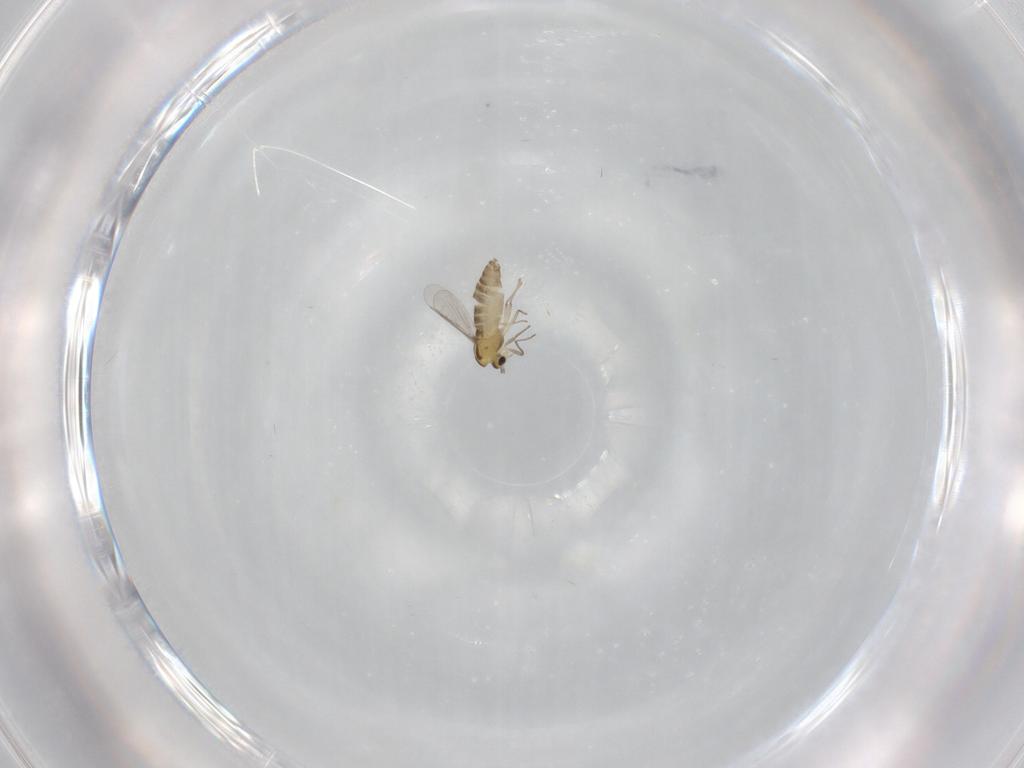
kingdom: Animalia
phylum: Arthropoda
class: Insecta
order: Diptera
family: Chironomidae
